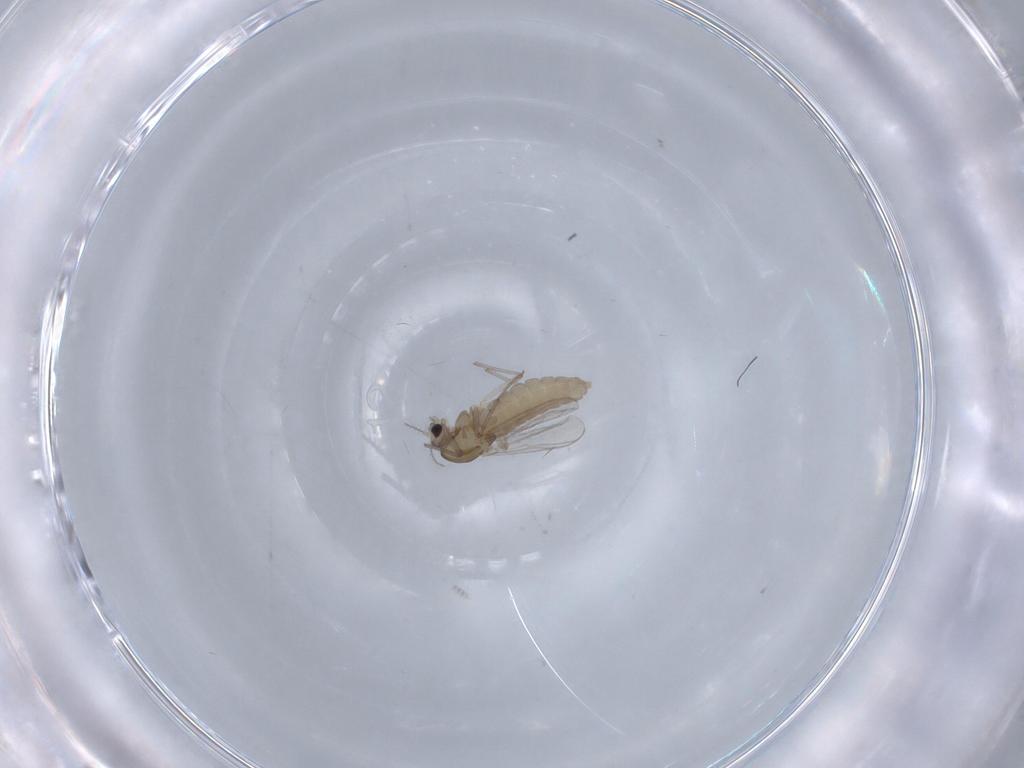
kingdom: Animalia
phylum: Arthropoda
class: Insecta
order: Diptera
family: Chironomidae
